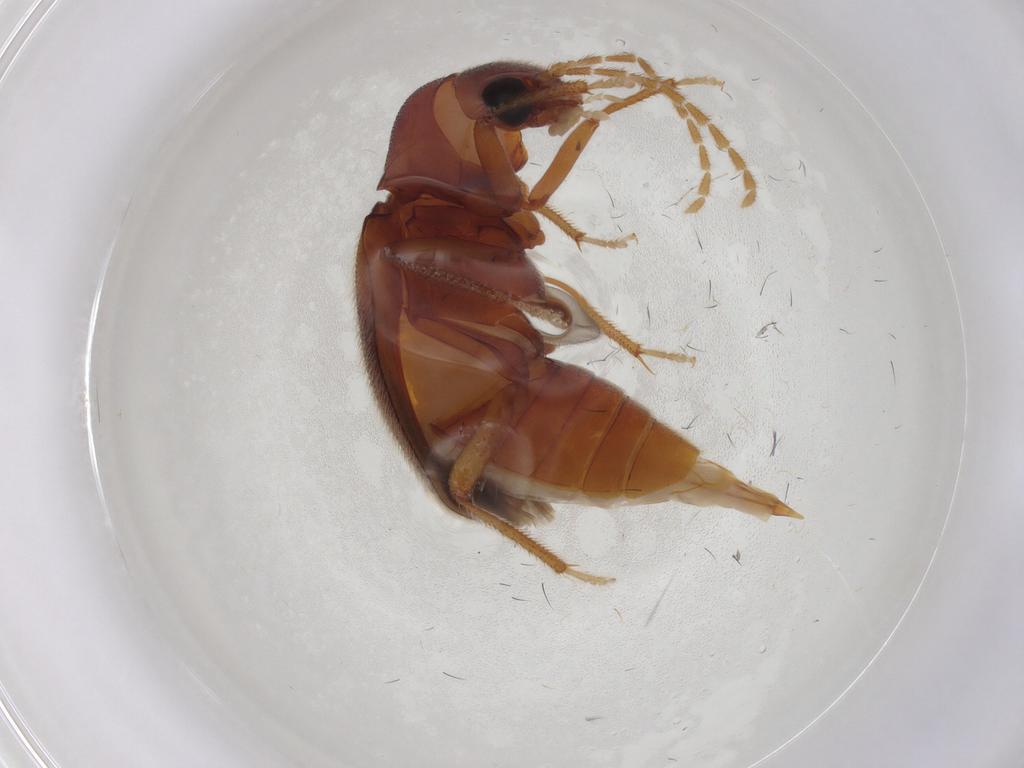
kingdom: Animalia
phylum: Arthropoda
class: Insecta
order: Coleoptera
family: Ptilodactylidae
